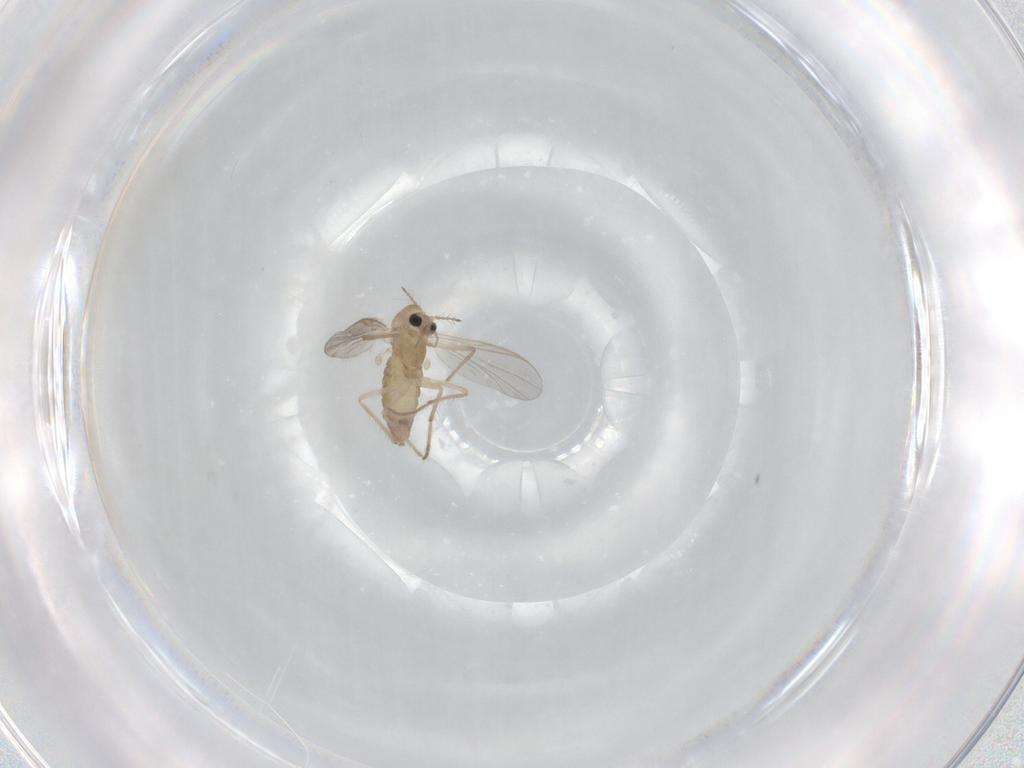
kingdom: Animalia
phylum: Arthropoda
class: Insecta
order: Diptera
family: Chironomidae
